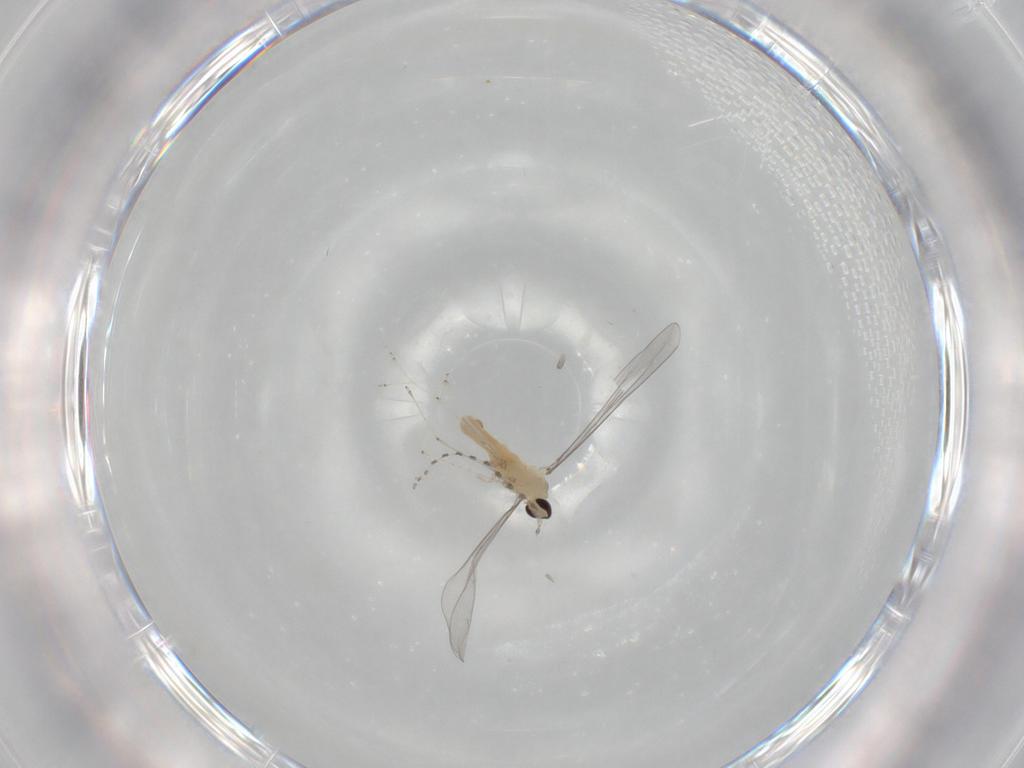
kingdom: Animalia
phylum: Arthropoda
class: Insecta
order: Diptera
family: Cecidomyiidae
